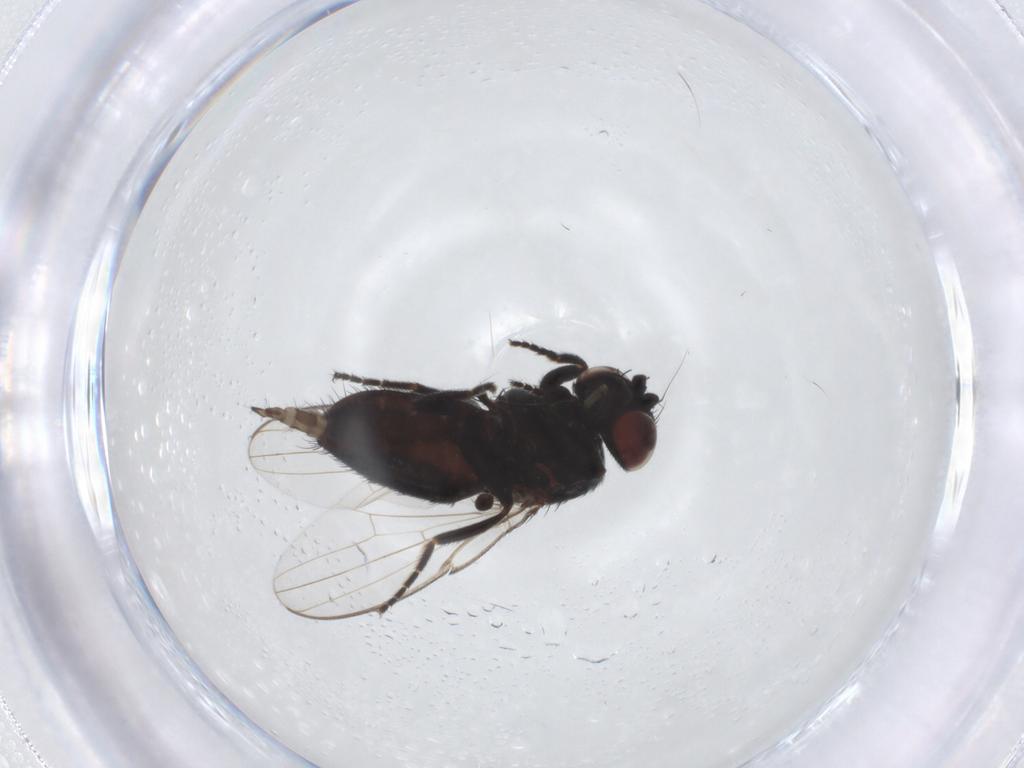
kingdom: Animalia
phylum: Arthropoda
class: Insecta
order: Diptera
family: Milichiidae
